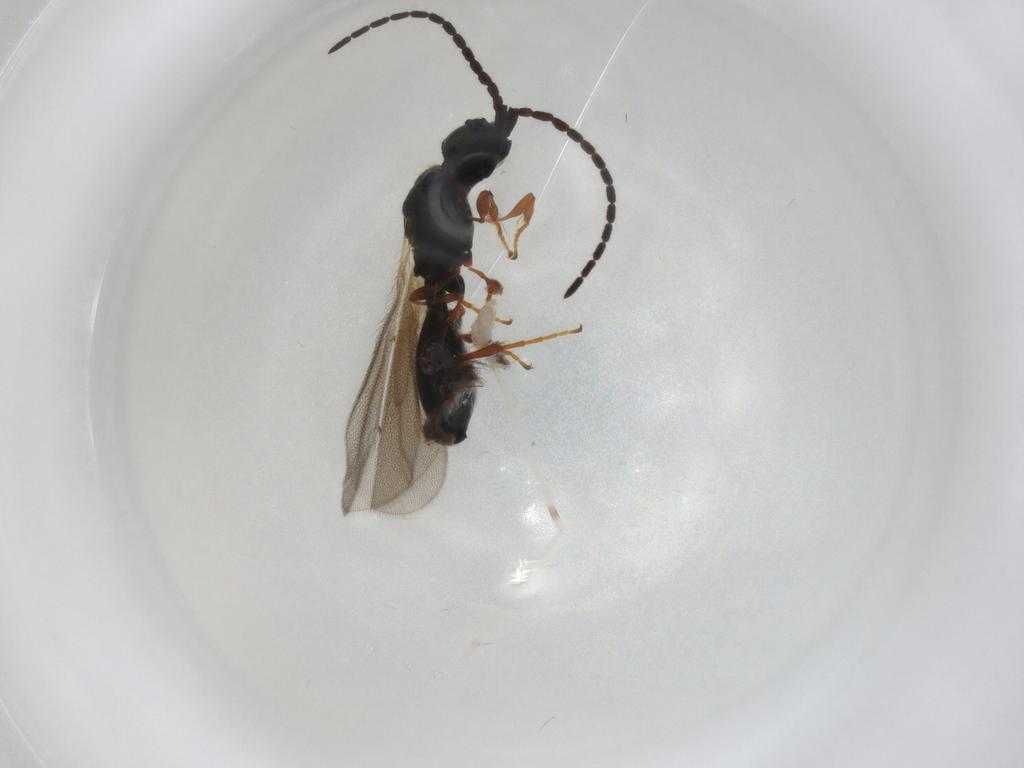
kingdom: Animalia
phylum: Arthropoda
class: Insecta
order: Hymenoptera
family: Diapriidae
